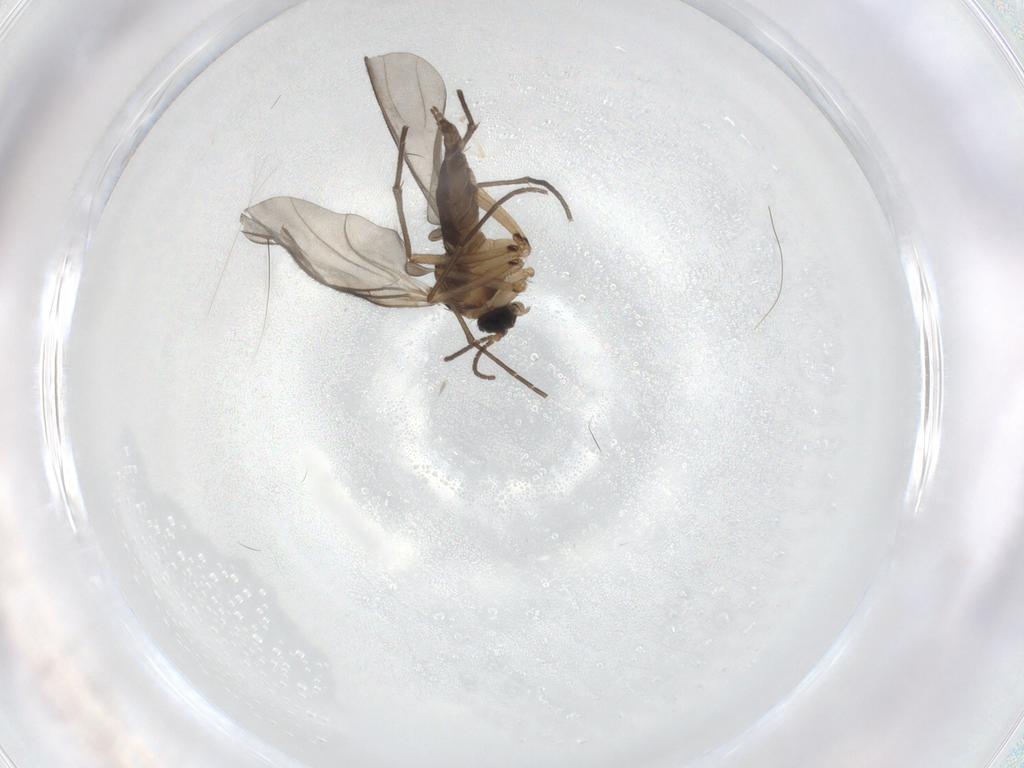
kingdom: Animalia
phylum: Arthropoda
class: Insecta
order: Diptera
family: Sciaridae
